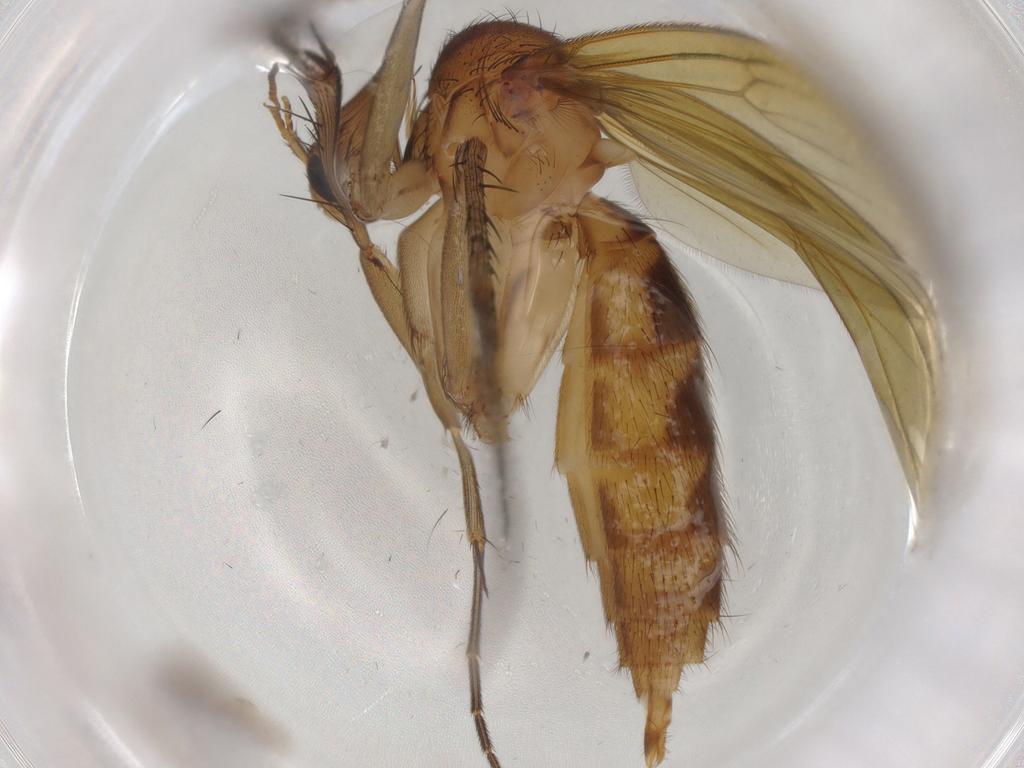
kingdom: Animalia
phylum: Arthropoda
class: Insecta
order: Diptera
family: Mycetophilidae
